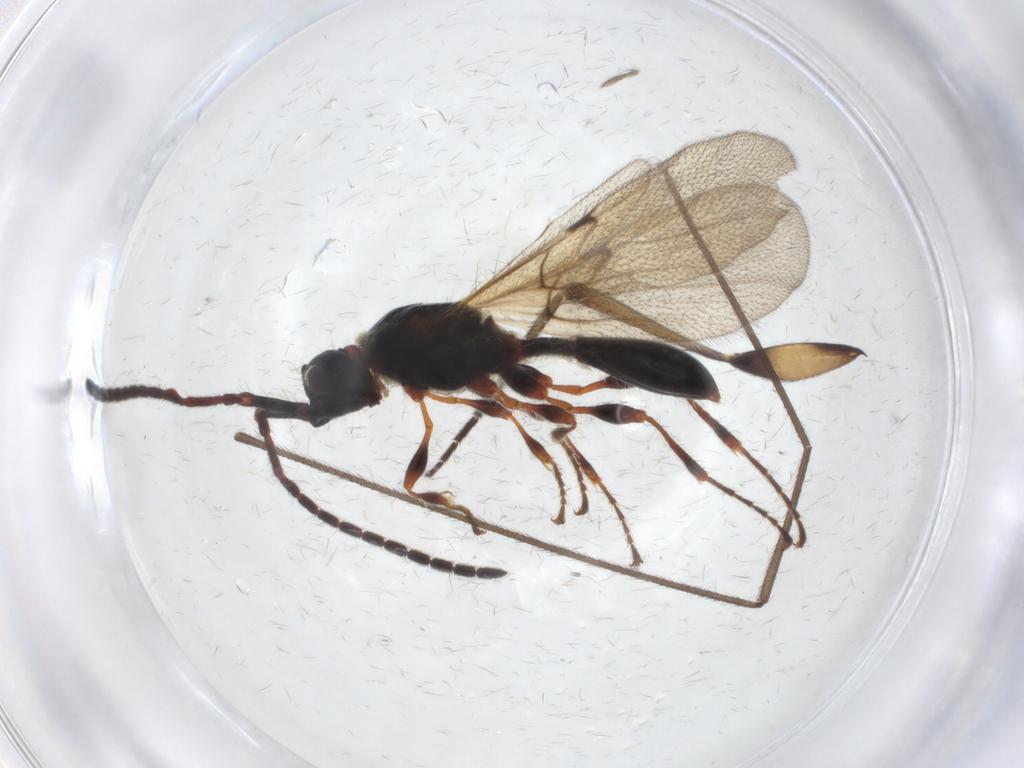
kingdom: Animalia
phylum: Arthropoda
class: Insecta
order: Hymenoptera
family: Diapriidae
